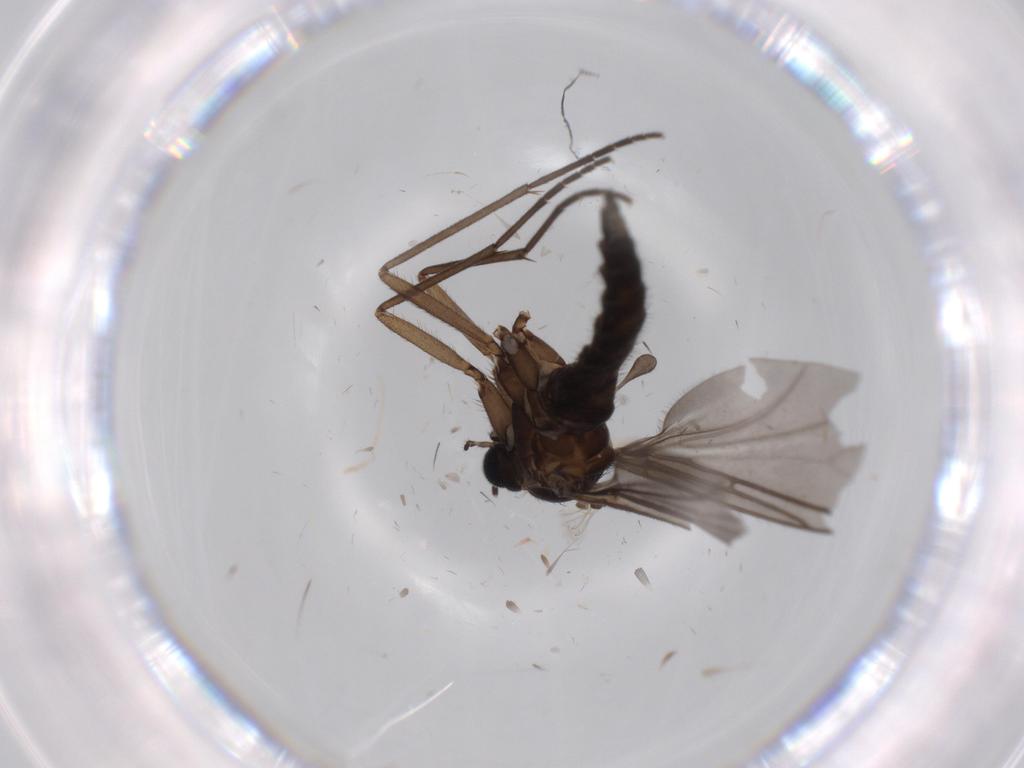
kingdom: Animalia
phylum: Arthropoda
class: Insecta
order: Diptera
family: Sciaridae
